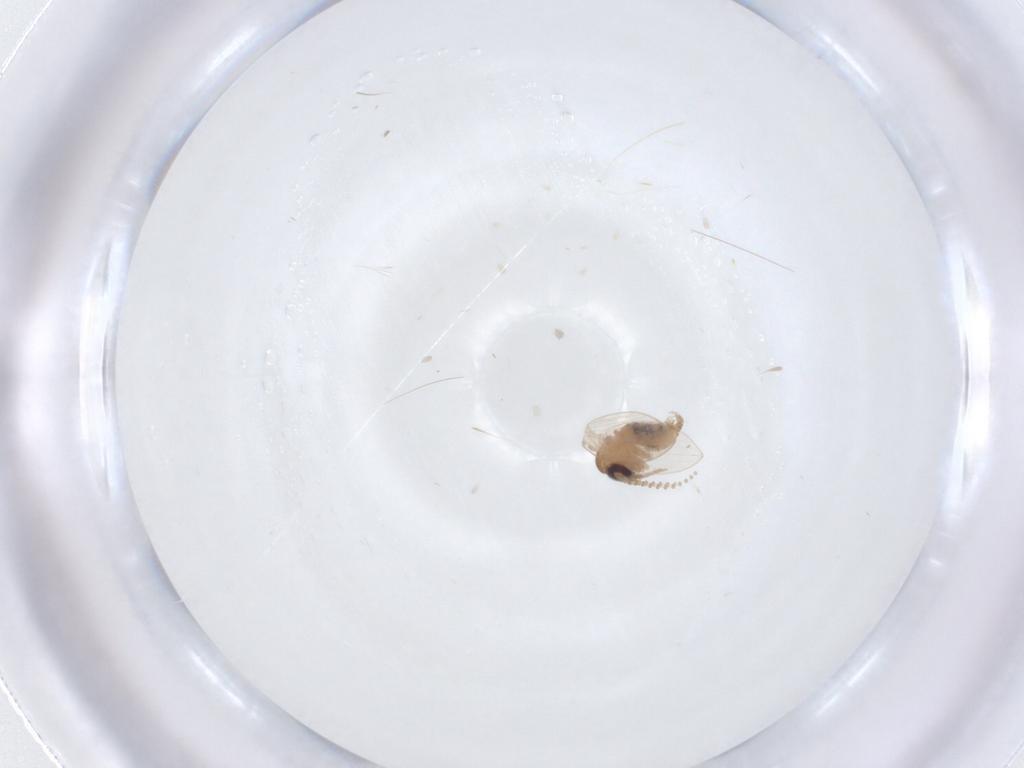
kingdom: Animalia
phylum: Arthropoda
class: Insecta
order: Diptera
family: Psychodidae
